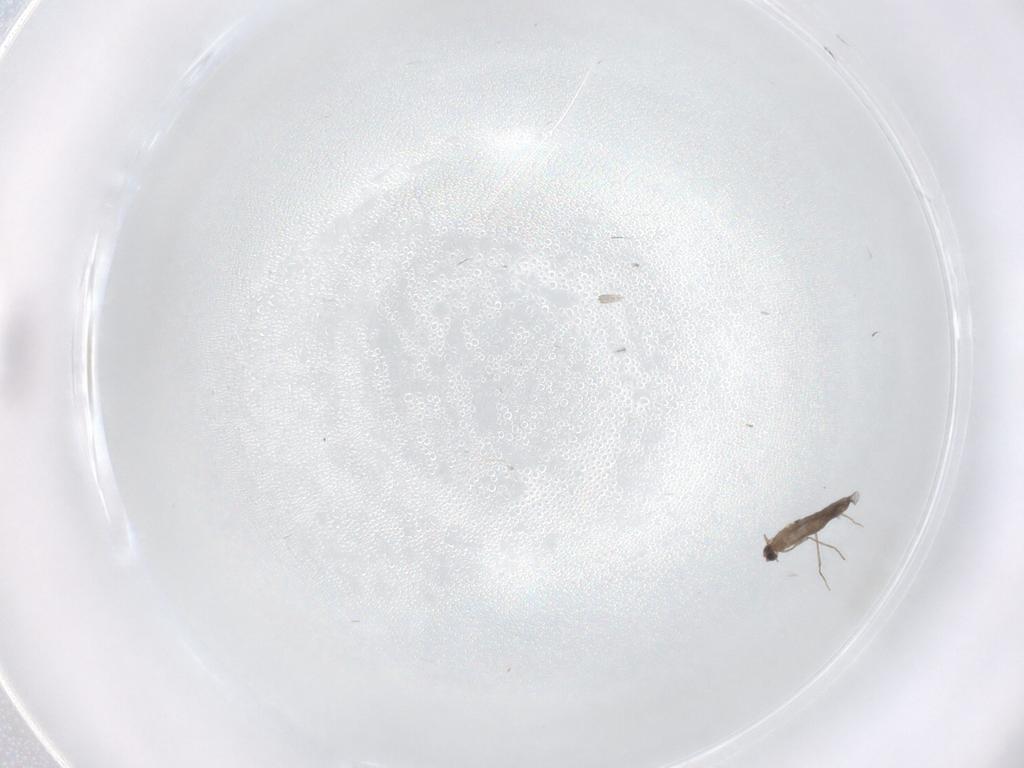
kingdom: Animalia
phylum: Arthropoda
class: Insecta
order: Diptera
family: Chironomidae
